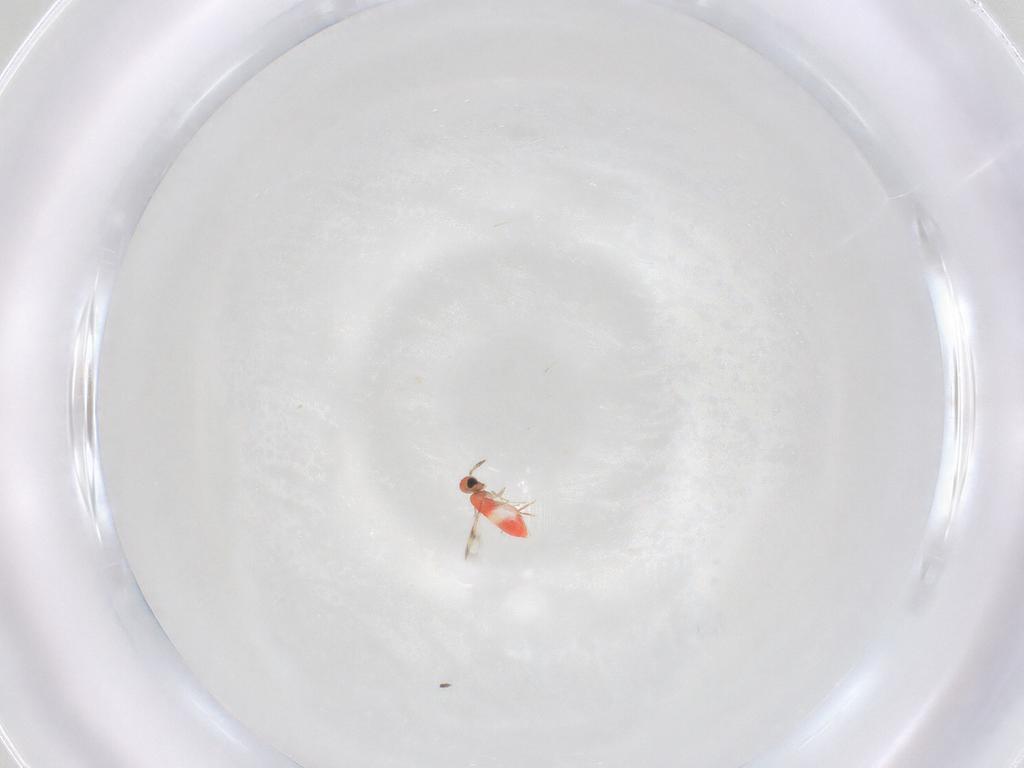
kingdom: Animalia
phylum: Arthropoda
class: Insecta
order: Hymenoptera
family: Trichogrammatidae
